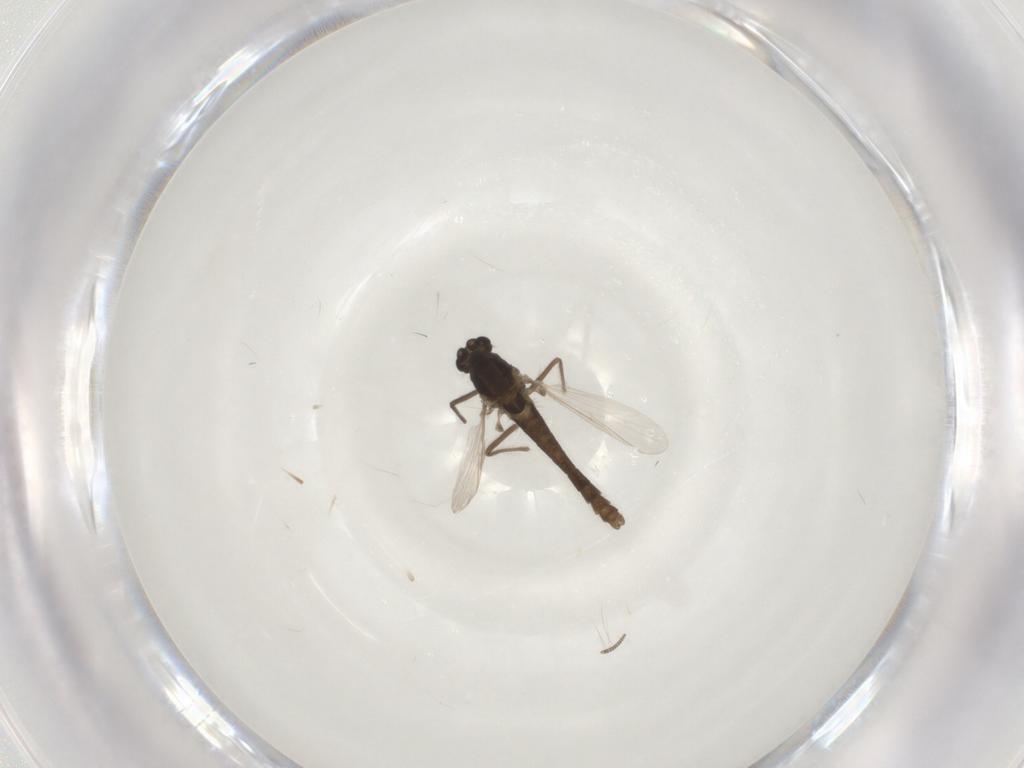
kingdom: Animalia
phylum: Arthropoda
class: Insecta
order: Diptera
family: Chironomidae
